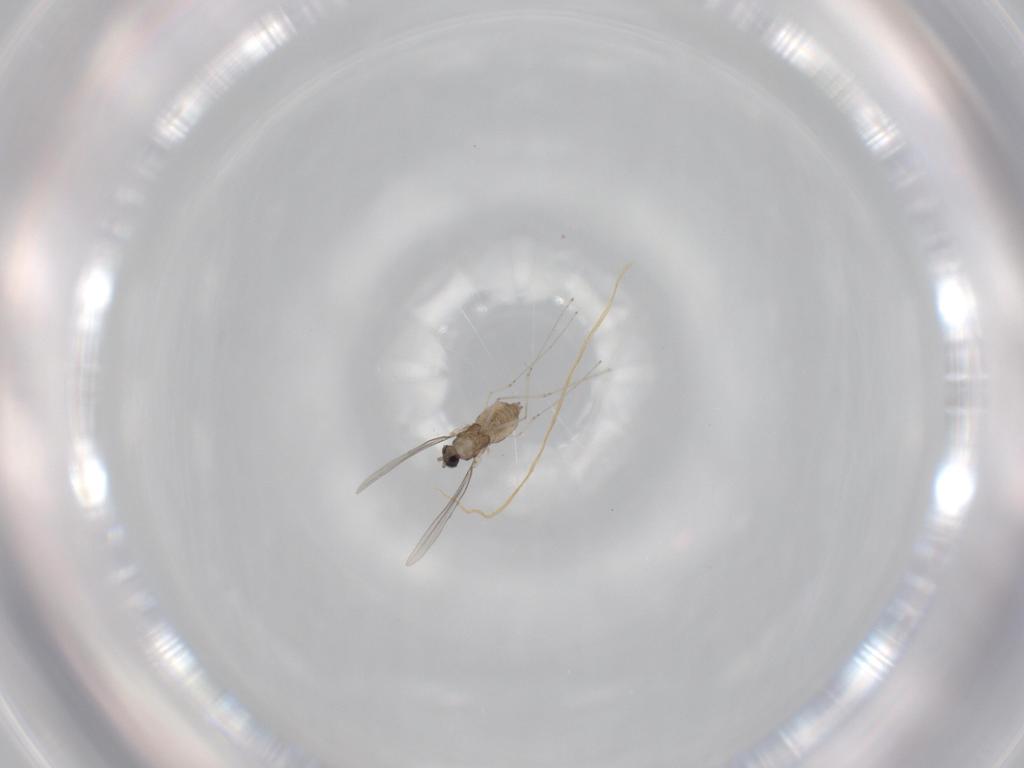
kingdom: Animalia
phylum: Arthropoda
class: Insecta
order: Diptera
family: Cecidomyiidae
